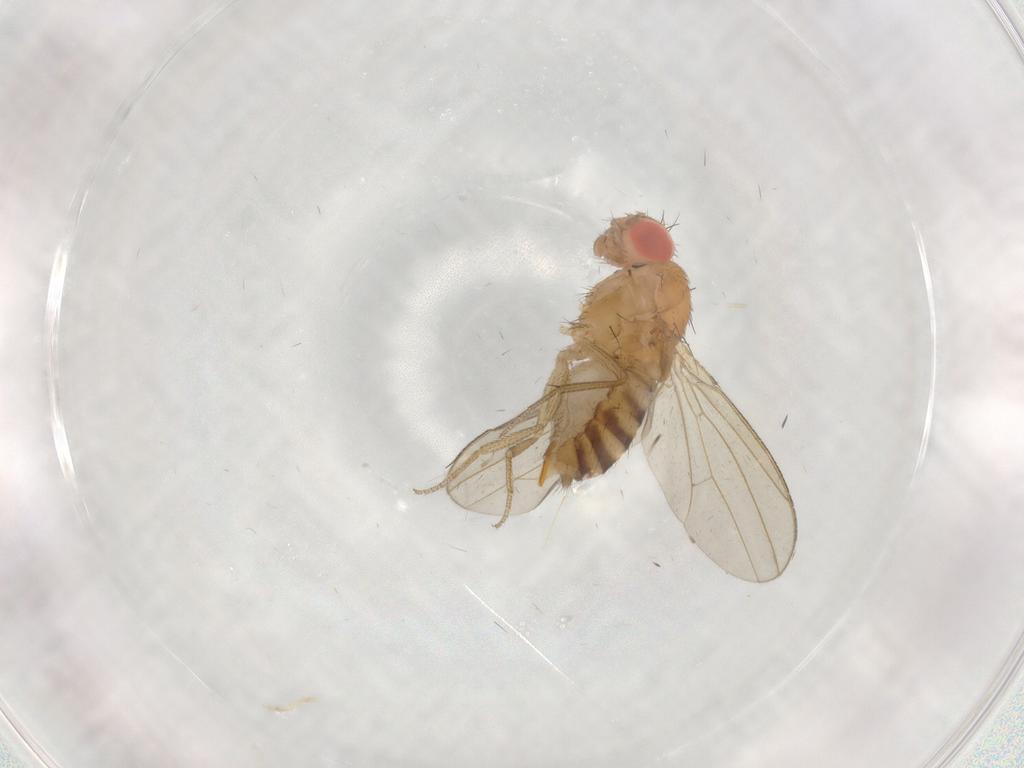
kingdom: Animalia
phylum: Arthropoda
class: Insecta
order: Diptera
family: Drosophilidae
